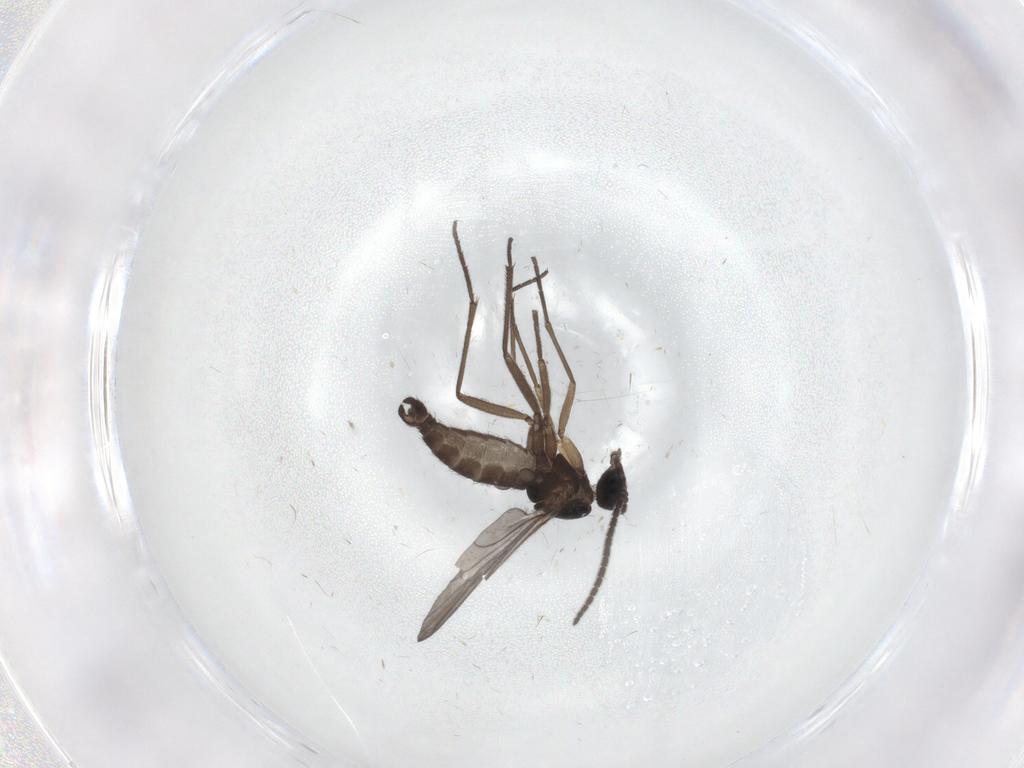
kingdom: Animalia
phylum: Arthropoda
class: Insecta
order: Diptera
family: Sciaridae
